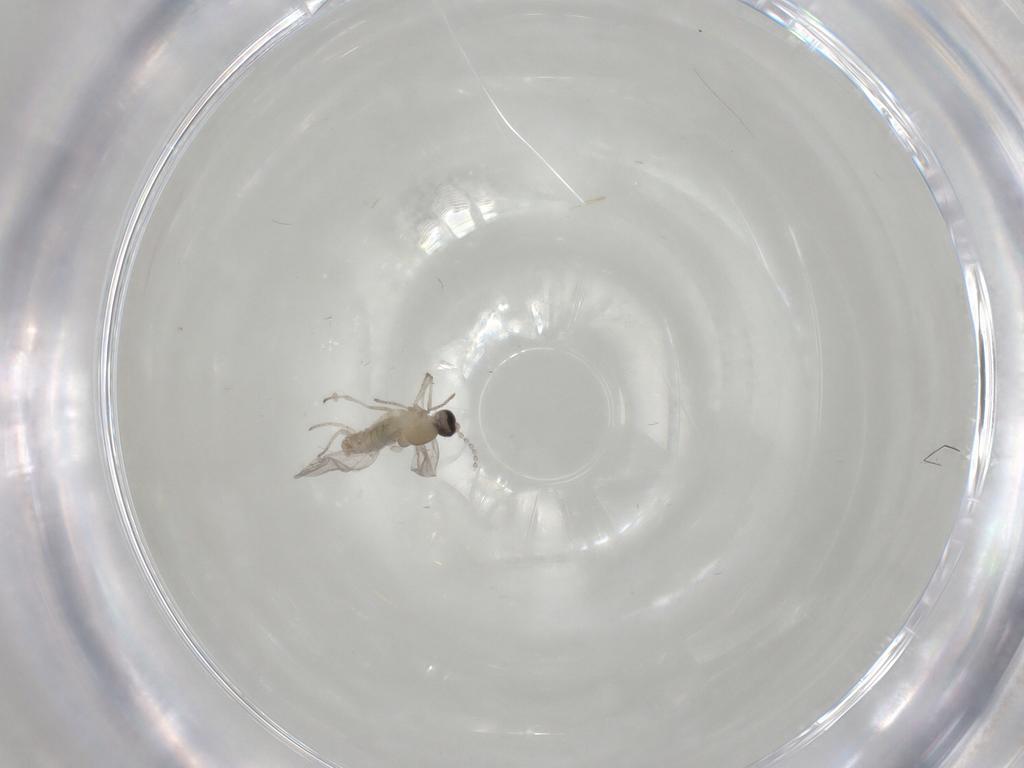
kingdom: Animalia
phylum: Arthropoda
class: Insecta
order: Diptera
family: Cecidomyiidae
